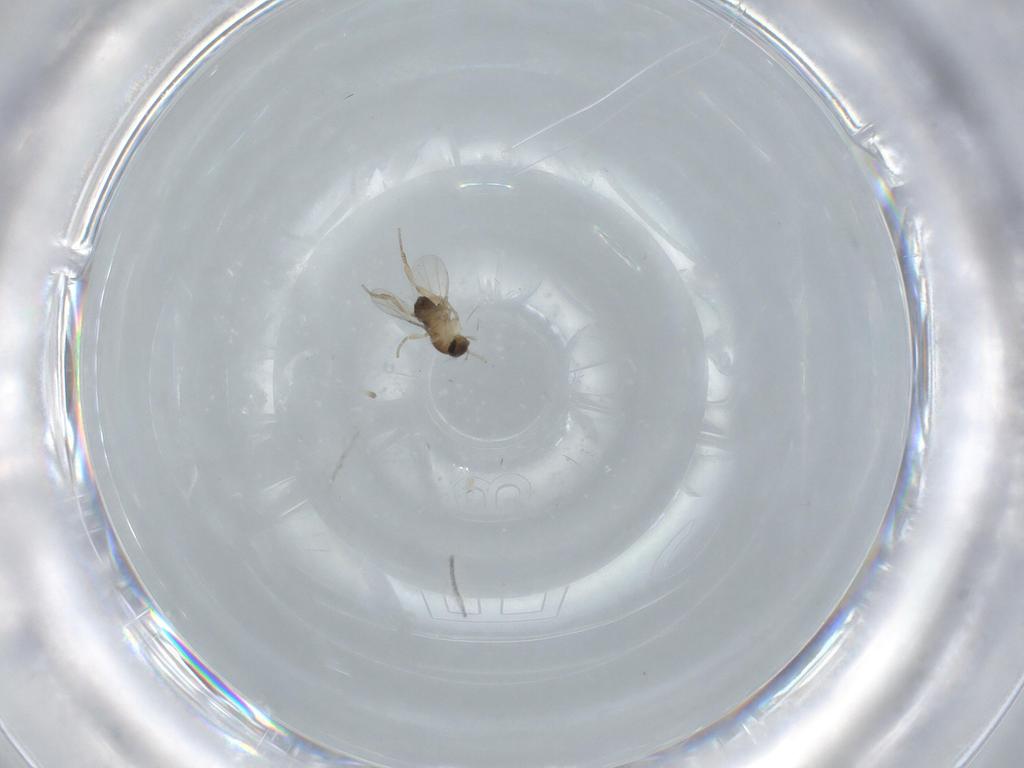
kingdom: Animalia
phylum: Arthropoda
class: Insecta
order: Diptera
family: Phoridae
